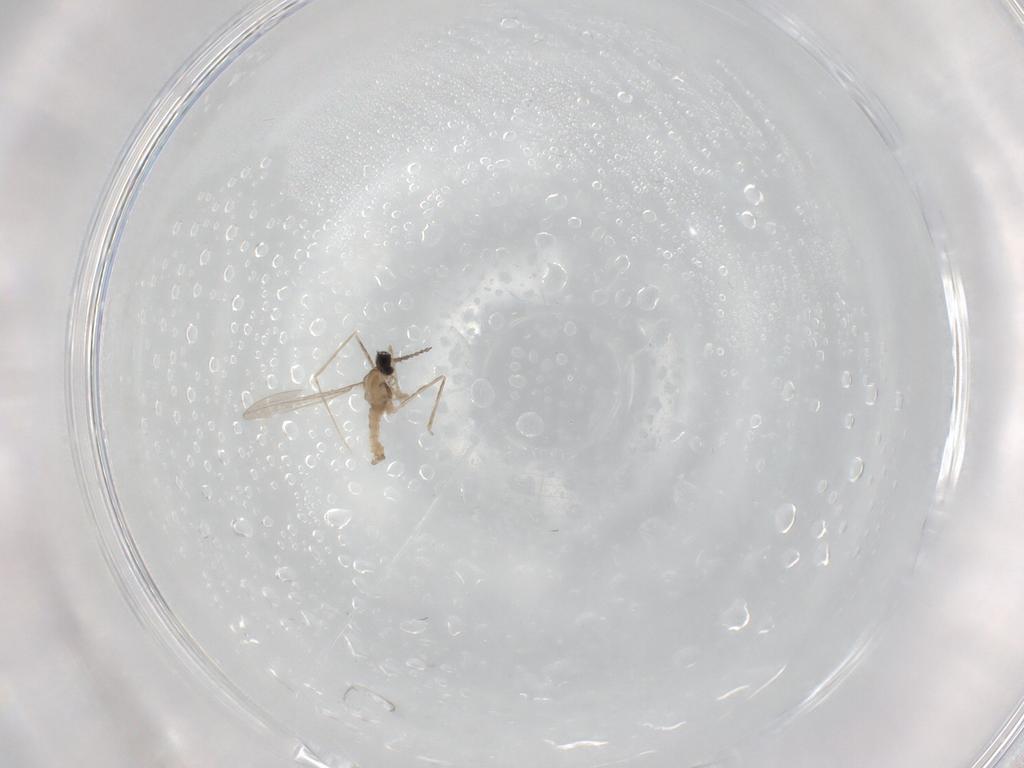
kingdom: Animalia
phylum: Arthropoda
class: Insecta
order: Diptera
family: Cecidomyiidae
